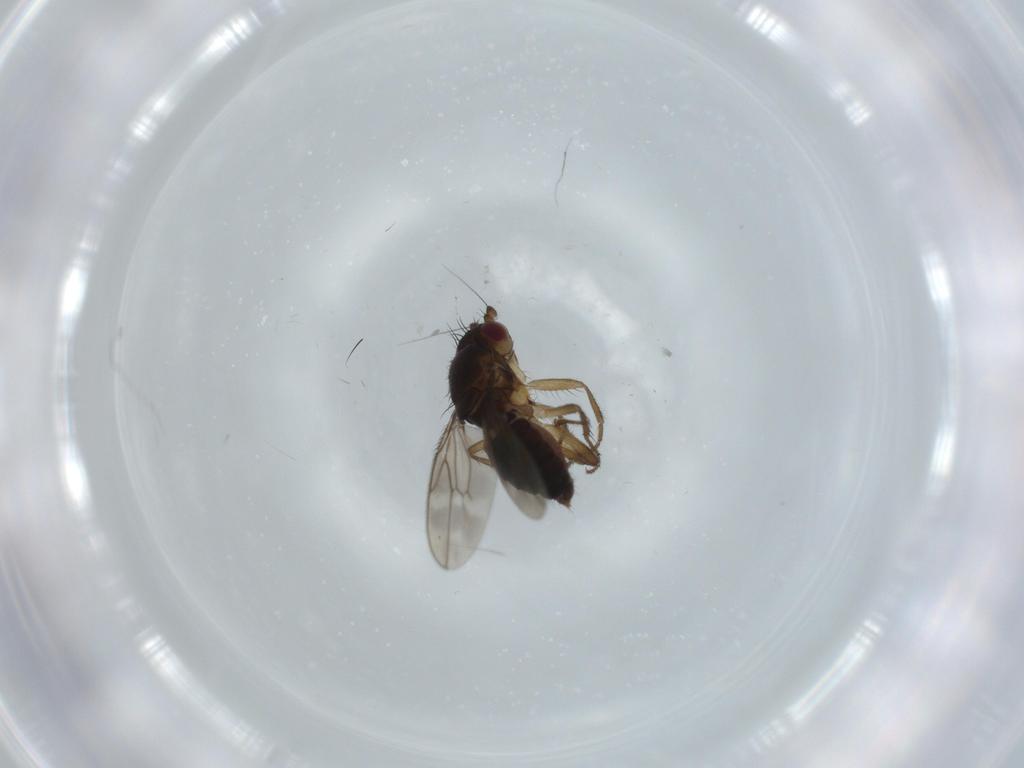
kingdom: Animalia
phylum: Arthropoda
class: Insecta
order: Diptera
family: Sphaeroceridae
